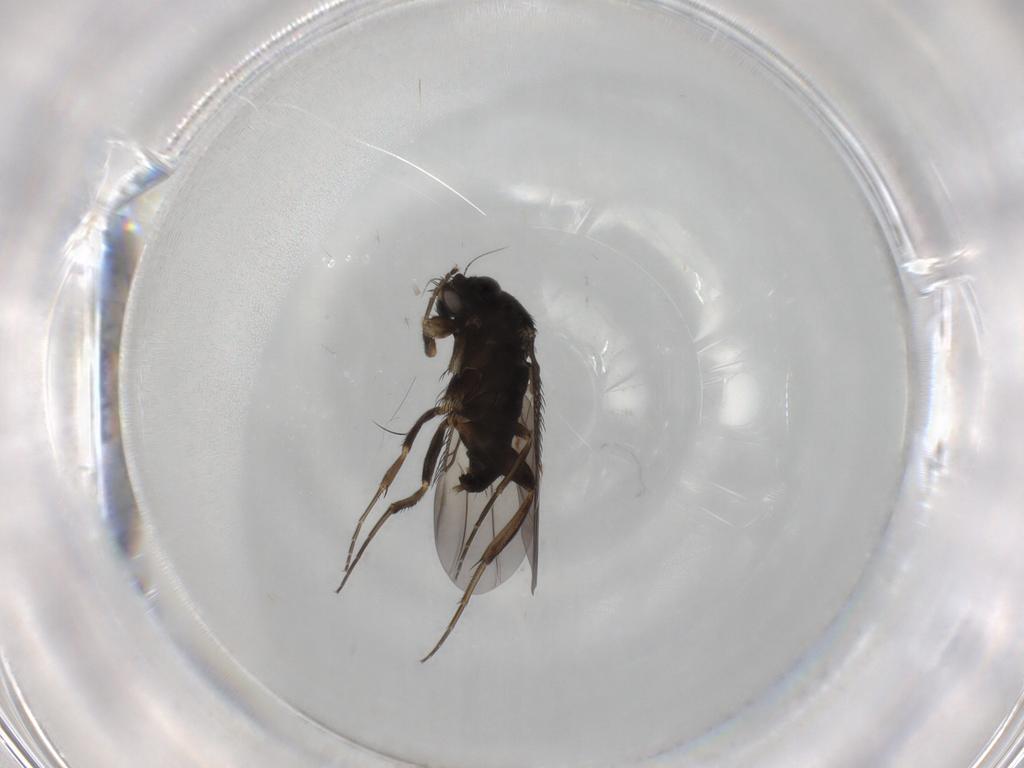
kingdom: Animalia
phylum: Arthropoda
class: Insecta
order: Diptera
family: Phoridae
